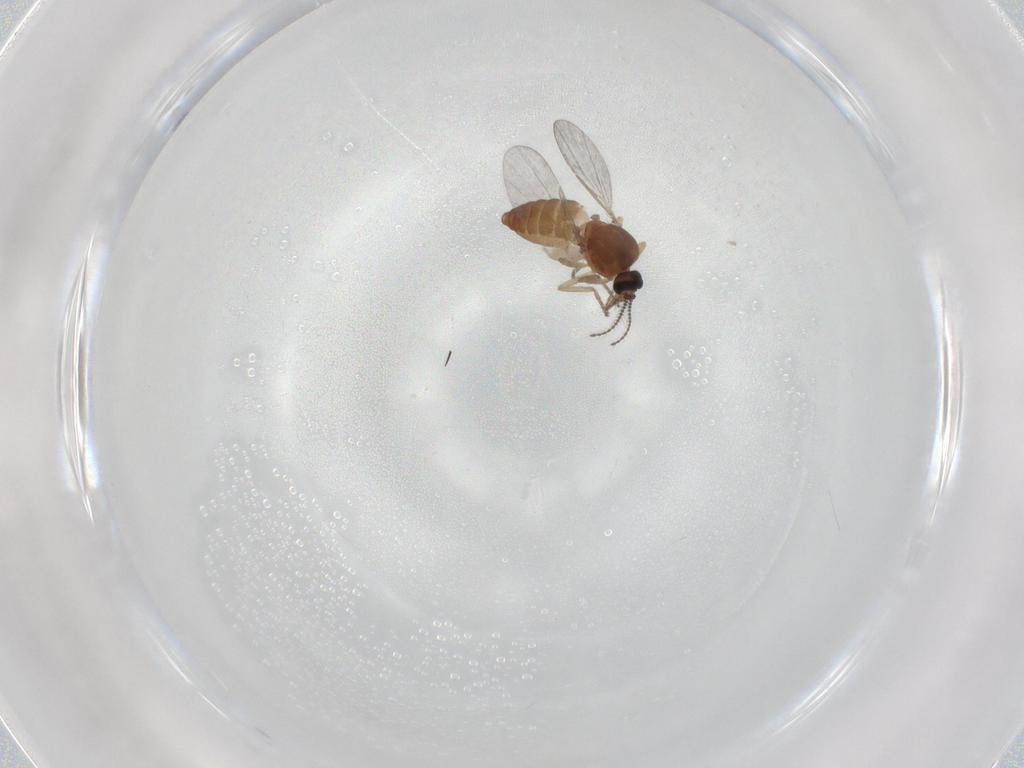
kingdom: Animalia
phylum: Arthropoda
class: Insecta
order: Diptera
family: Ceratopogonidae
